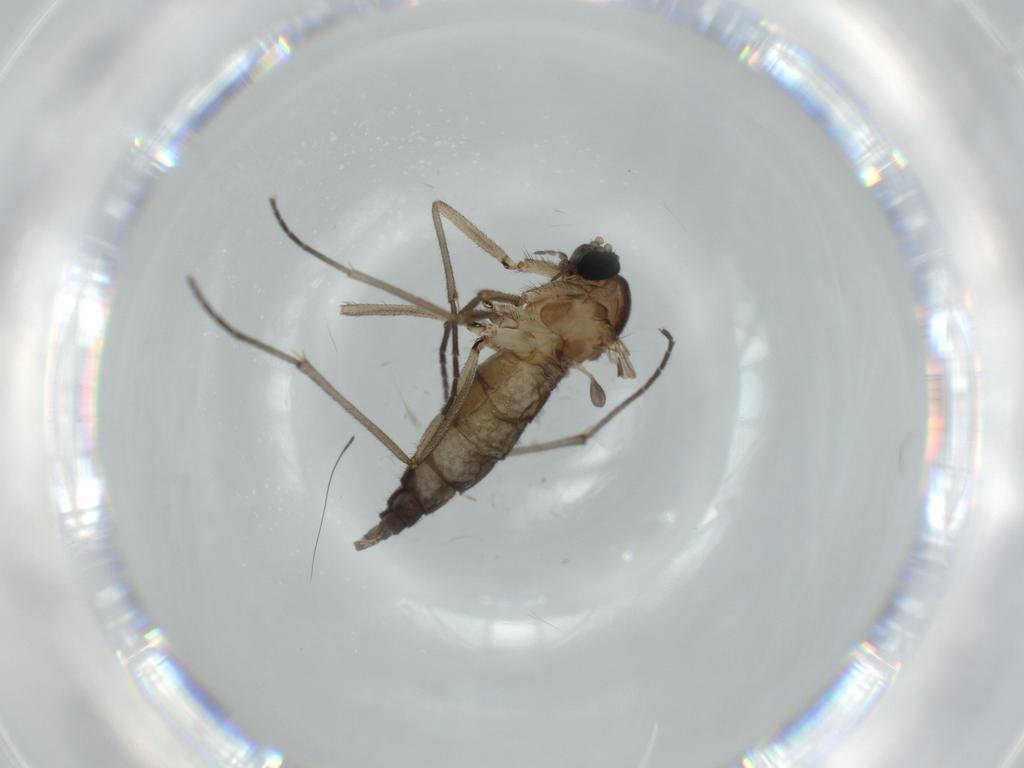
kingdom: Animalia
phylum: Arthropoda
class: Insecta
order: Diptera
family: Sciaridae
